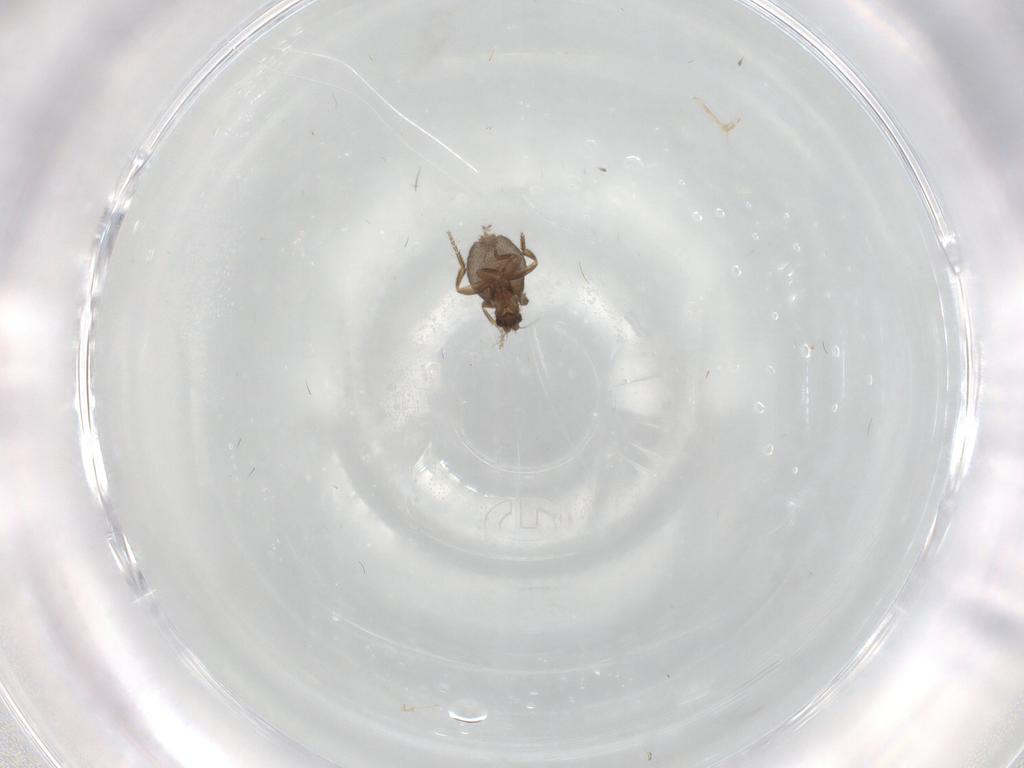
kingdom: Animalia
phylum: Arthropoda
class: Insecta
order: Diptera
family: Phoridae
